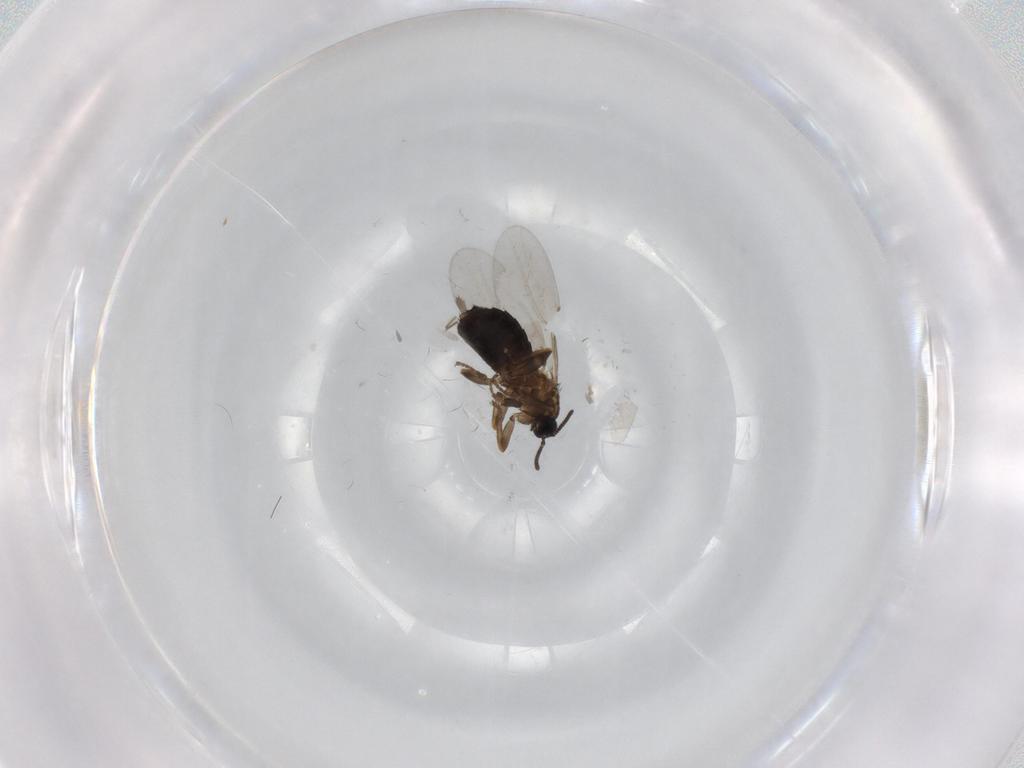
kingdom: Animalia
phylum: Arthropoda
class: Insecta
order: Diptera
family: Scatopsidae
